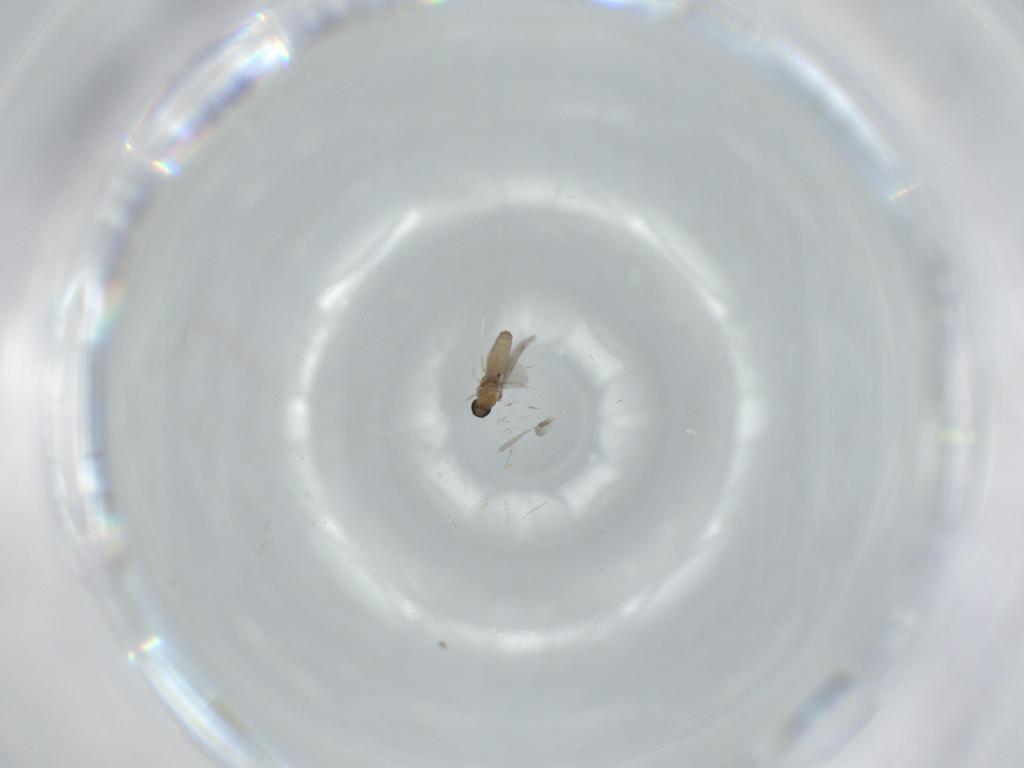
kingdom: Animalia
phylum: Arthropoda
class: Insecta
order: Diptera
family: Cecidomyiidae
